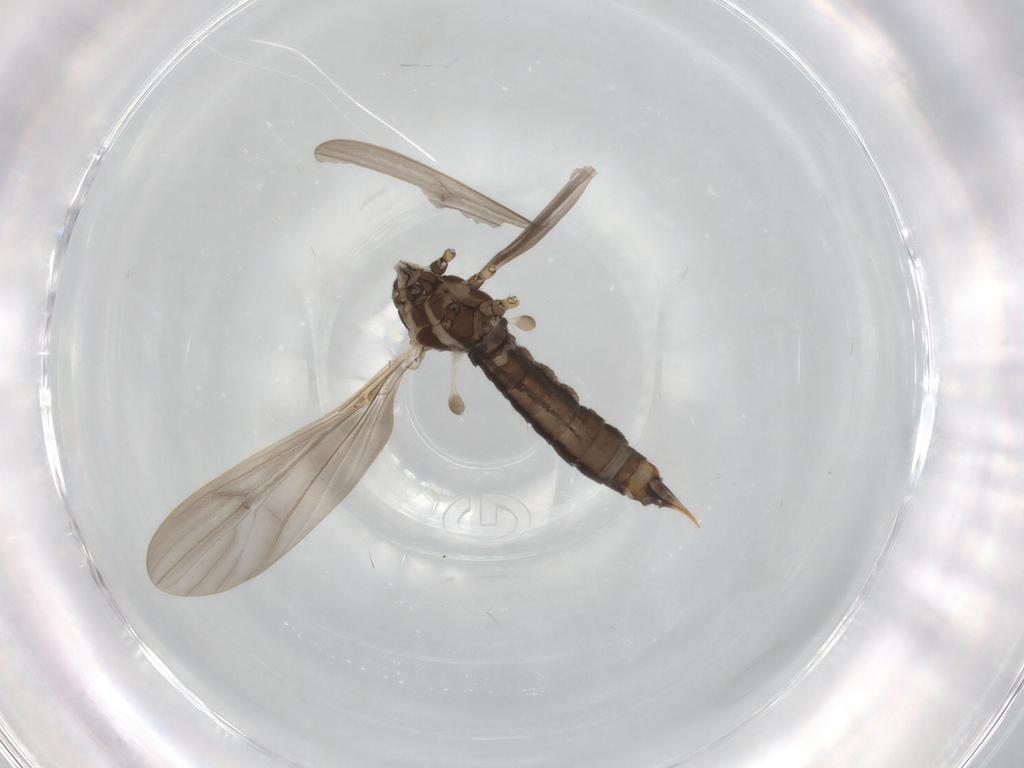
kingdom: Animalia
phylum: Arthropoda
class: Insecta
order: Diptera
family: Limoniidae
